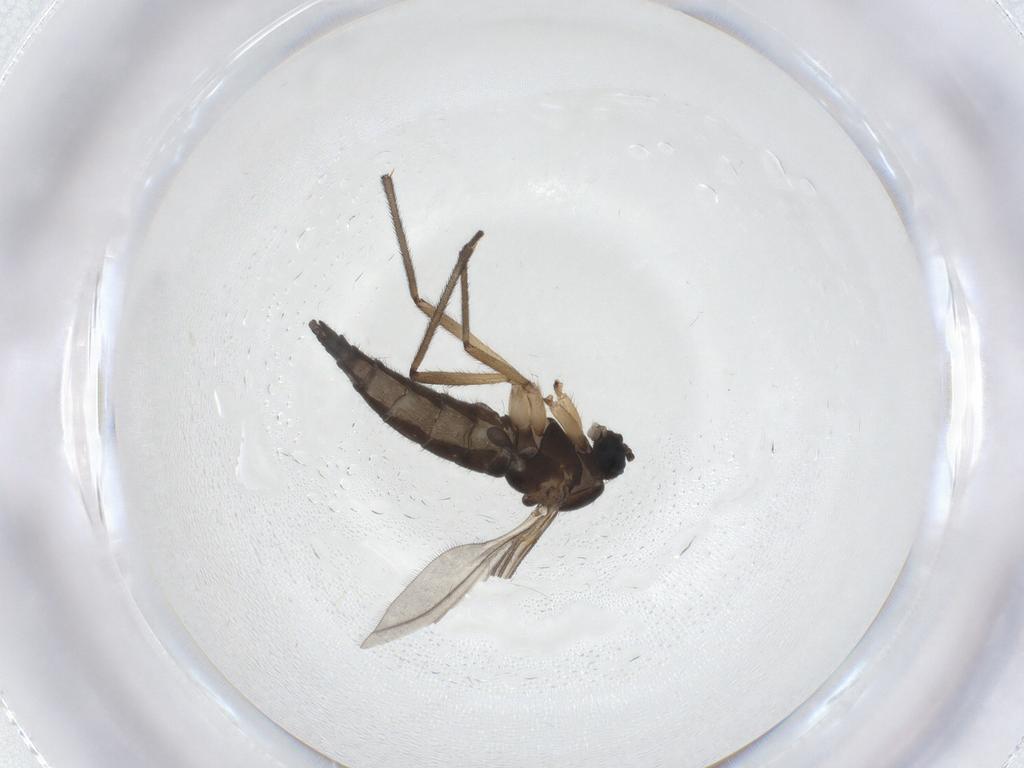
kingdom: Animalia
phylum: Arthropoda
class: Insecta
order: Diptera
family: Sciaridae
